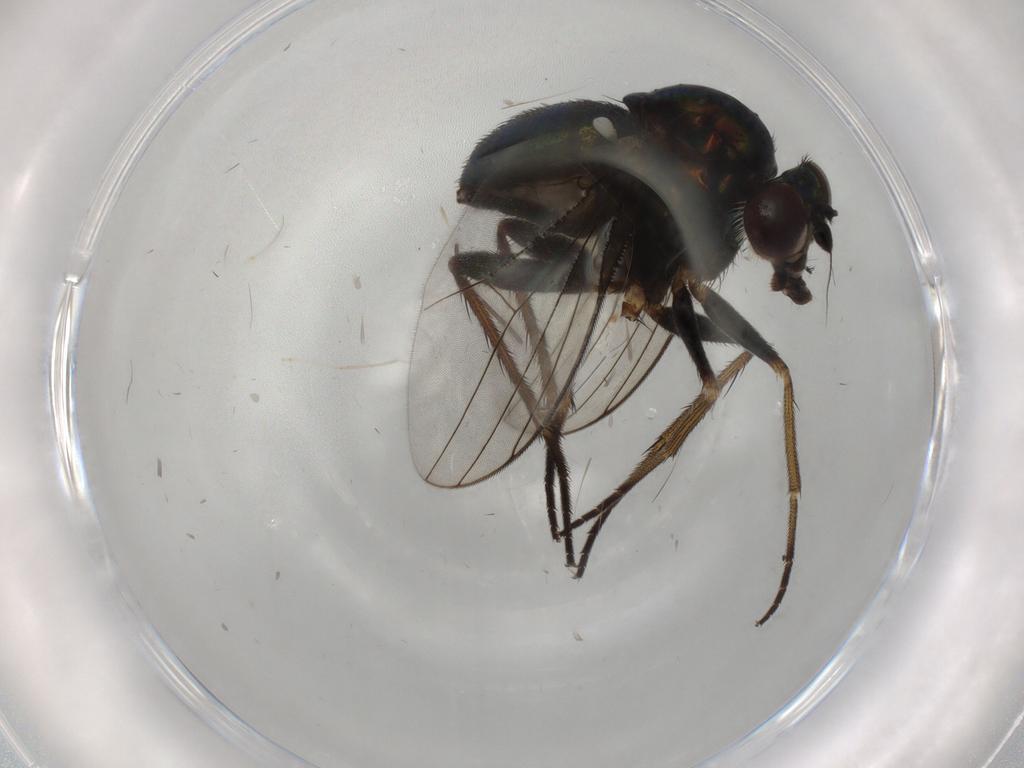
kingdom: Animalia
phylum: Arthropoda
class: Insecta
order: Diptera
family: Dolichopodidae
